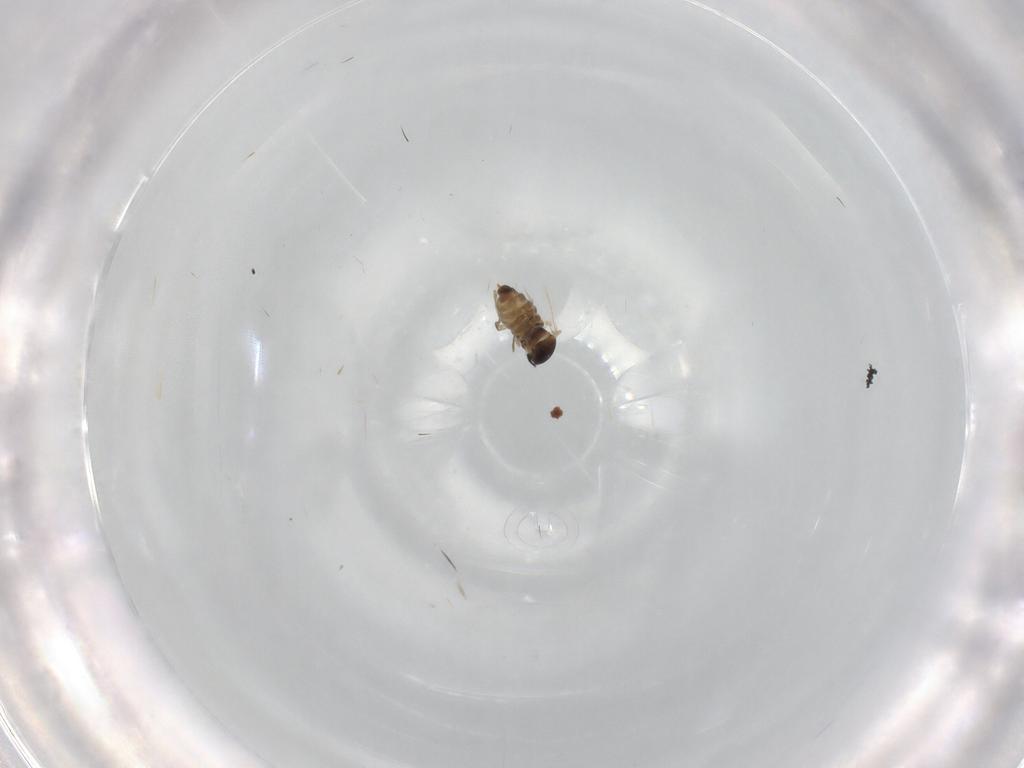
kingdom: Animalia
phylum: Arthropoda
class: Insecta
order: Diptera
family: Cecidomyiidae
